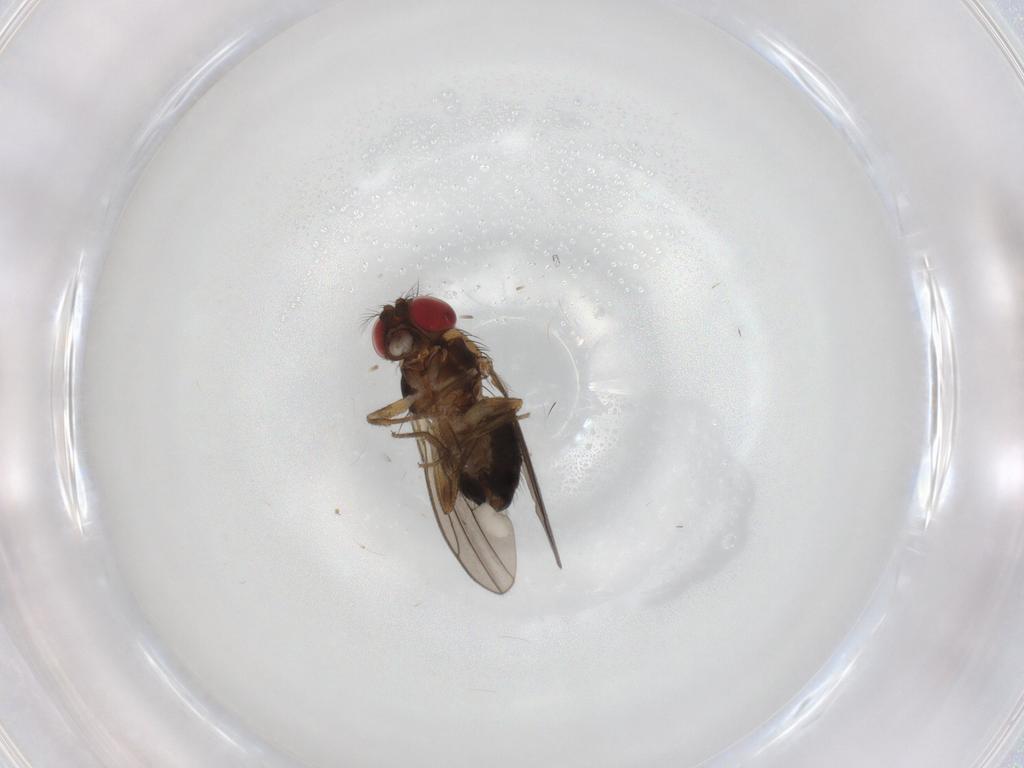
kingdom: Animalia
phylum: Arthropoda
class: Insecta
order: Diptera
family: Drosophilidae
